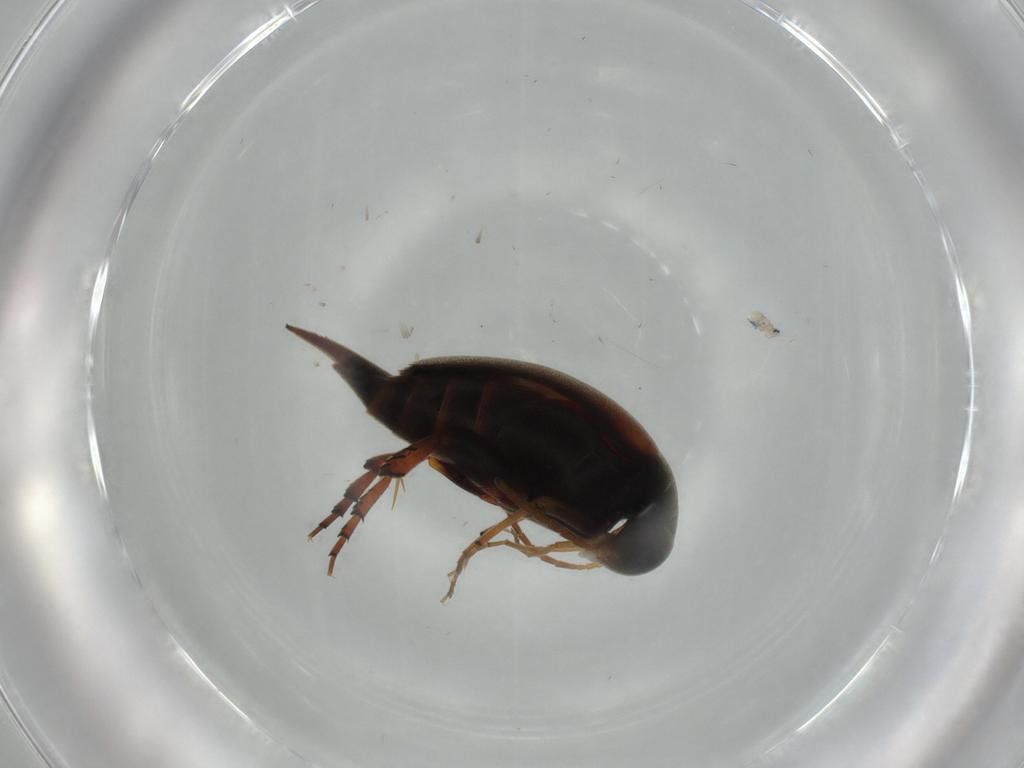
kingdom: Animalia
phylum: Arthropoda
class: Insecta
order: Coleoptera
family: Mordellidae
